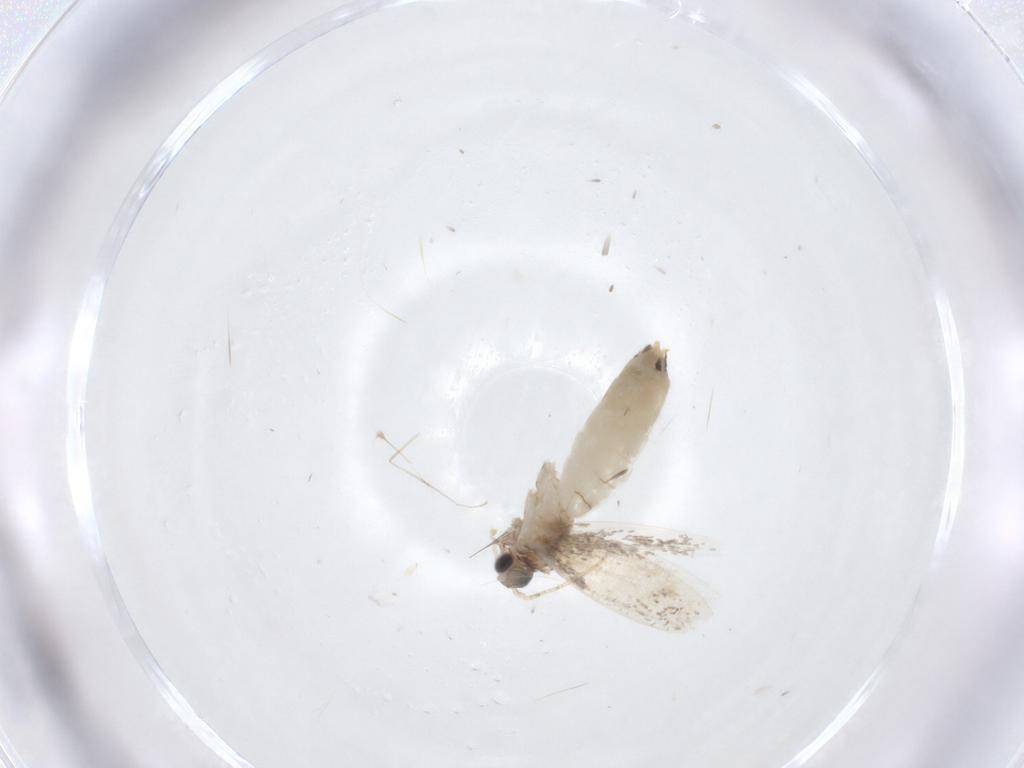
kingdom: Animalia
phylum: Arthropoda
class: Insecta
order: Lepidoptera
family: Dryadaulidae
